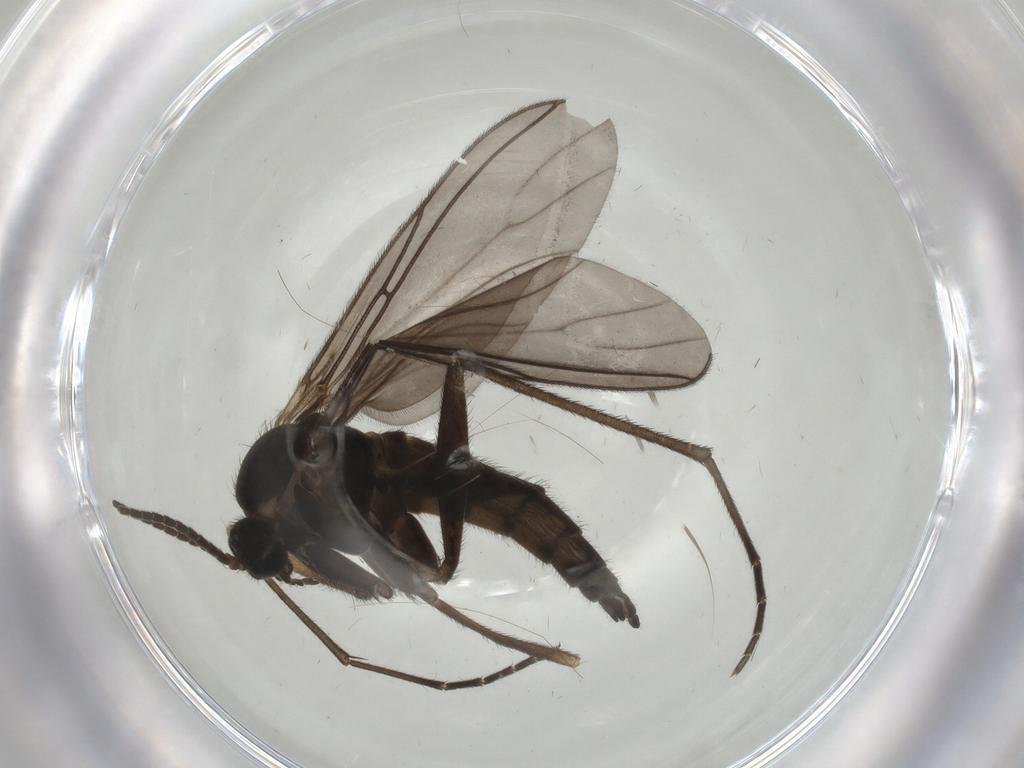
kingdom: Animalia
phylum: Arthropoda
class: Insecta
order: Diptera
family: Sciaridae
